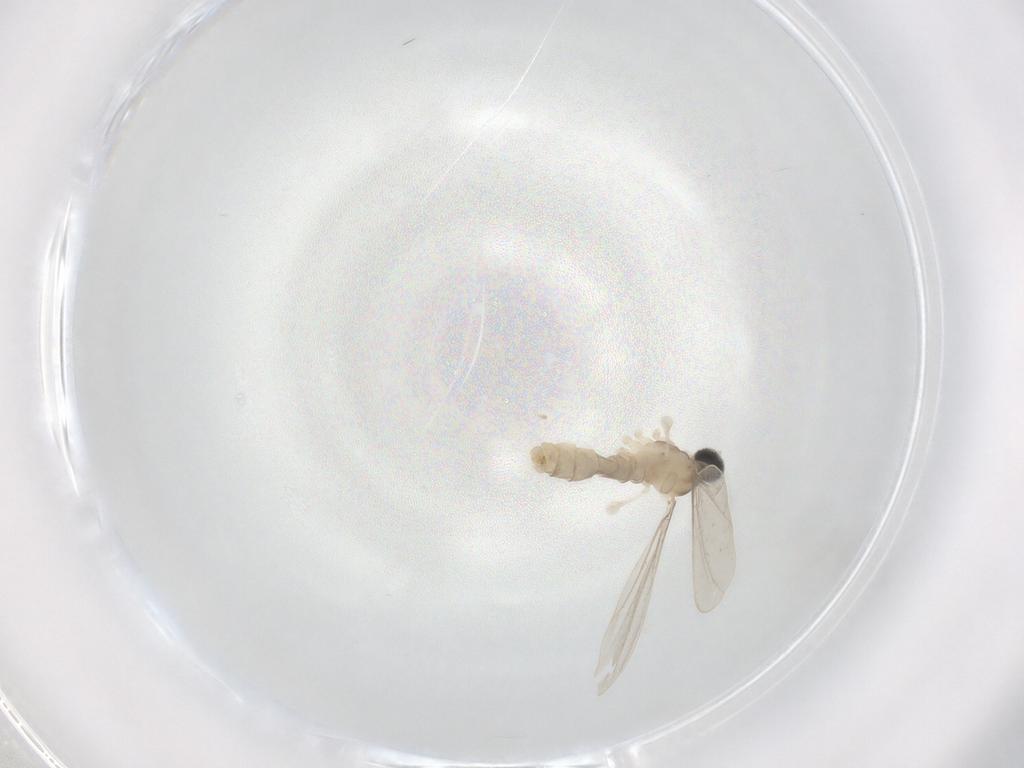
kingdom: Animalia
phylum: Arthropoda
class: Insecta
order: Diptera
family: Cecidomyiidae
